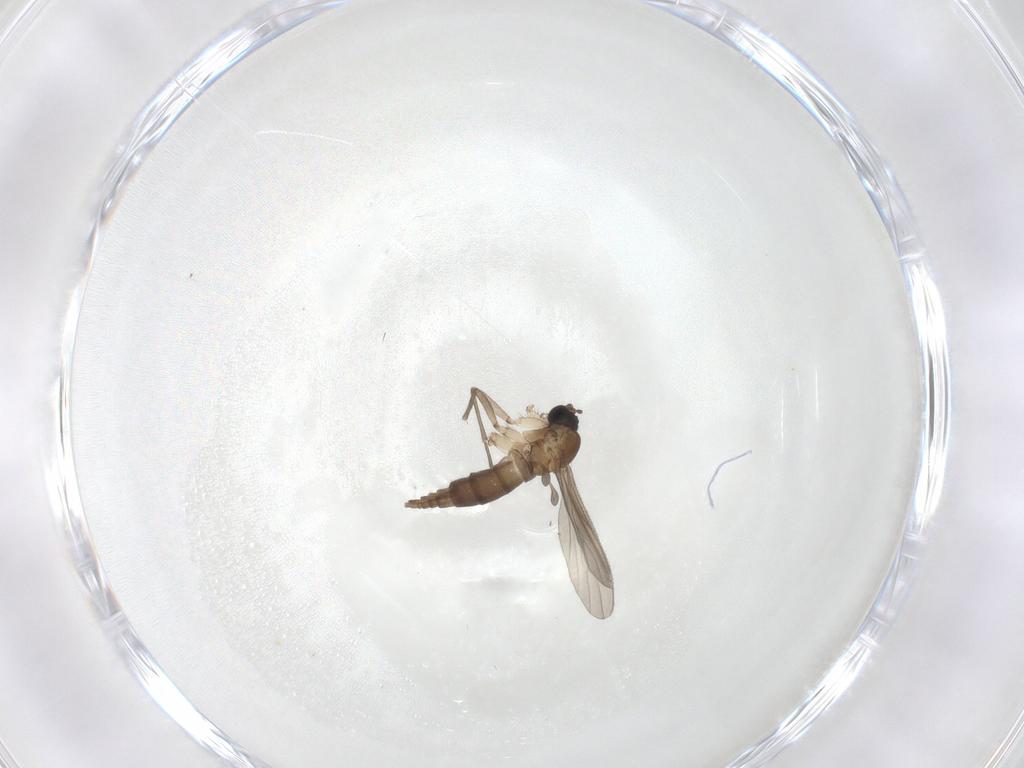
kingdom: Animalia
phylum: Arthropoda
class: Insecta
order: Diptera
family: Sciaridae
